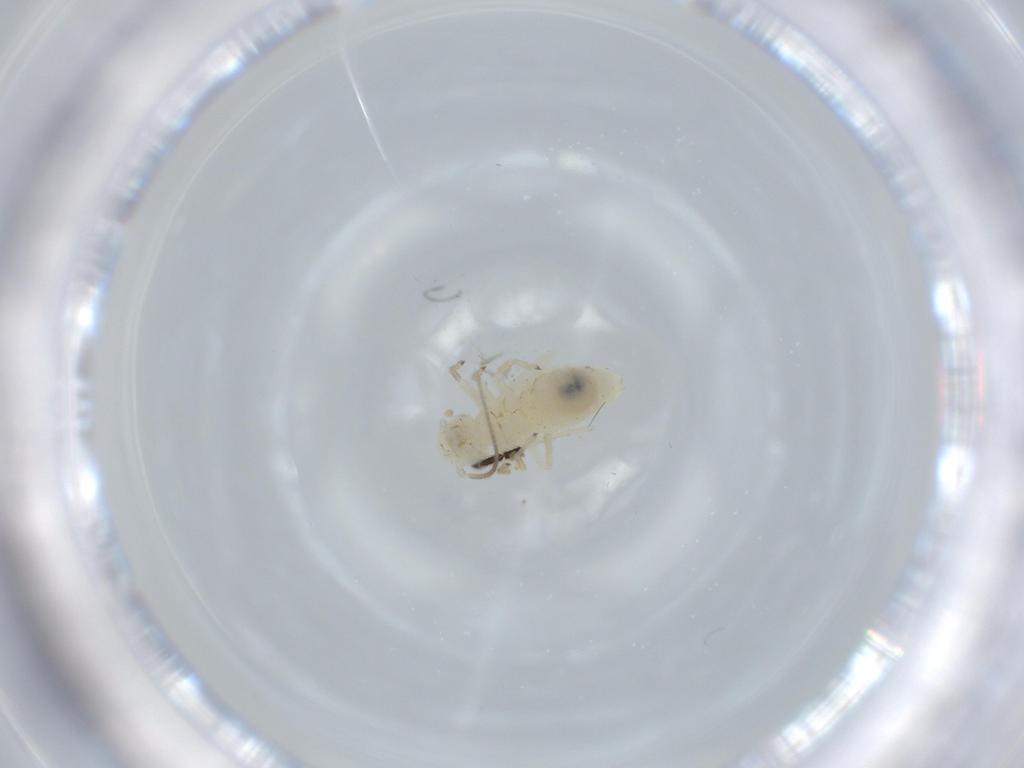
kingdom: Animalia
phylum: Arthropoda
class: Insecta
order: Psocodea
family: Caeciliusidae
